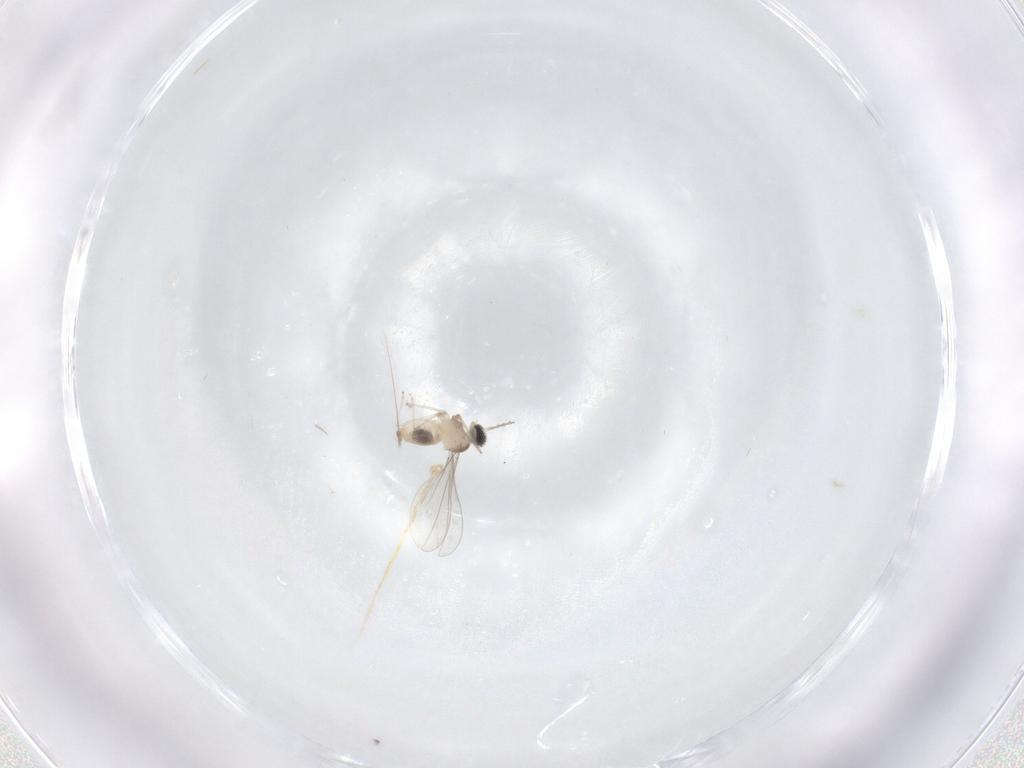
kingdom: Animalia
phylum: Arthropoda
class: Insecta
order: Diptera
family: Cecidomyiidae
